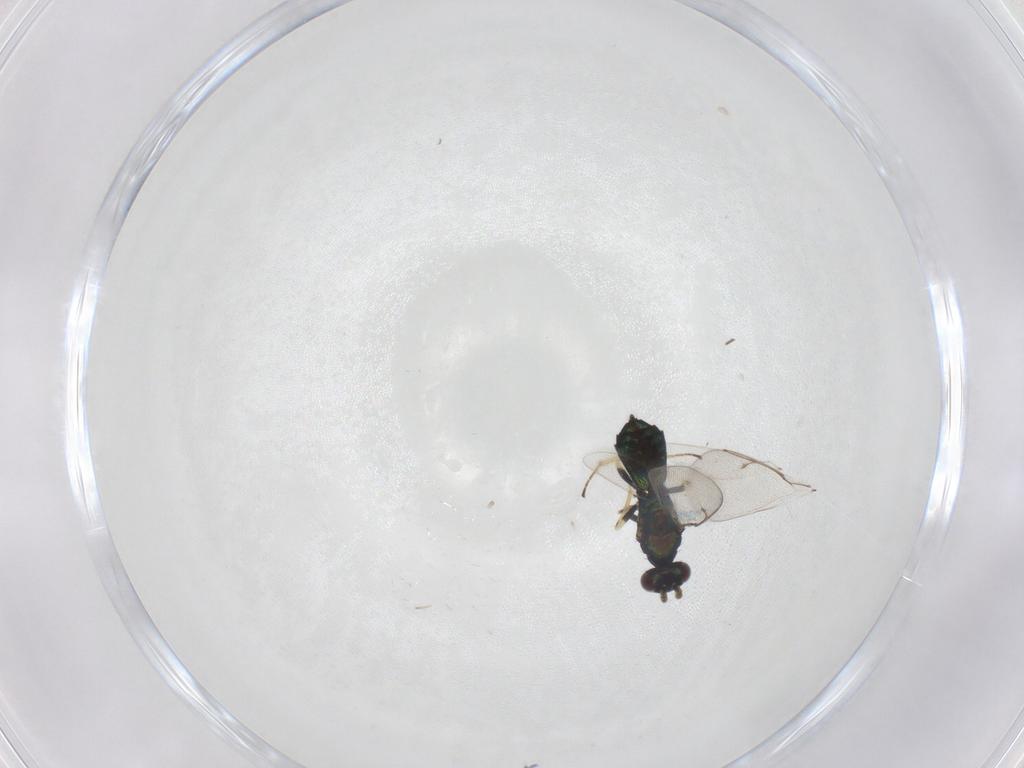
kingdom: Animalia
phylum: Arthropoda
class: Insecta
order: Hymenoptera
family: Eulophidae
